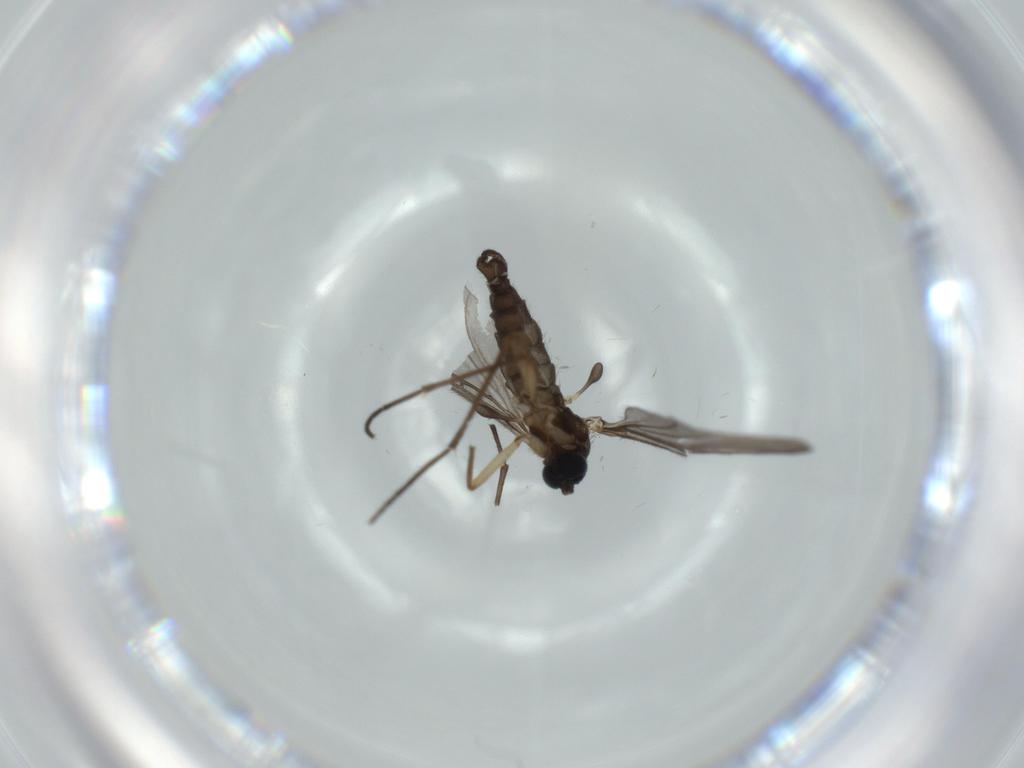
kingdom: Animalia
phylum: Arthropoda
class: Insecta
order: Diptera
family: Sciaridae
